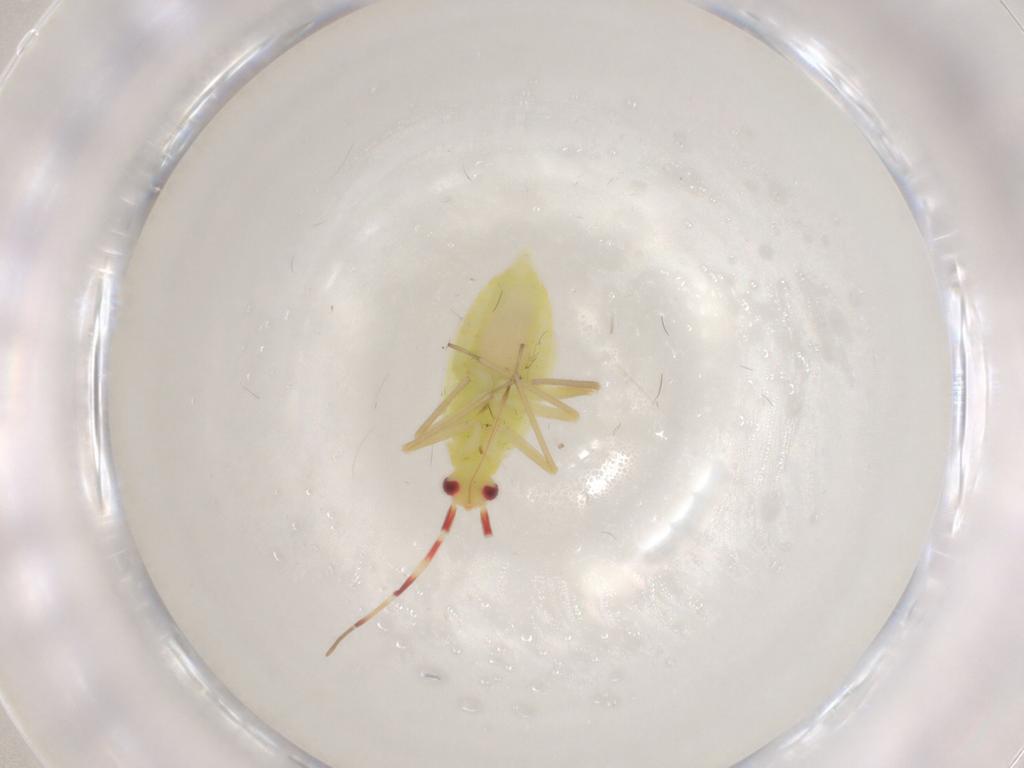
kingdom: Animalia
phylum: Arthropoda
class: Insecta
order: Hemiptera
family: Miridae
